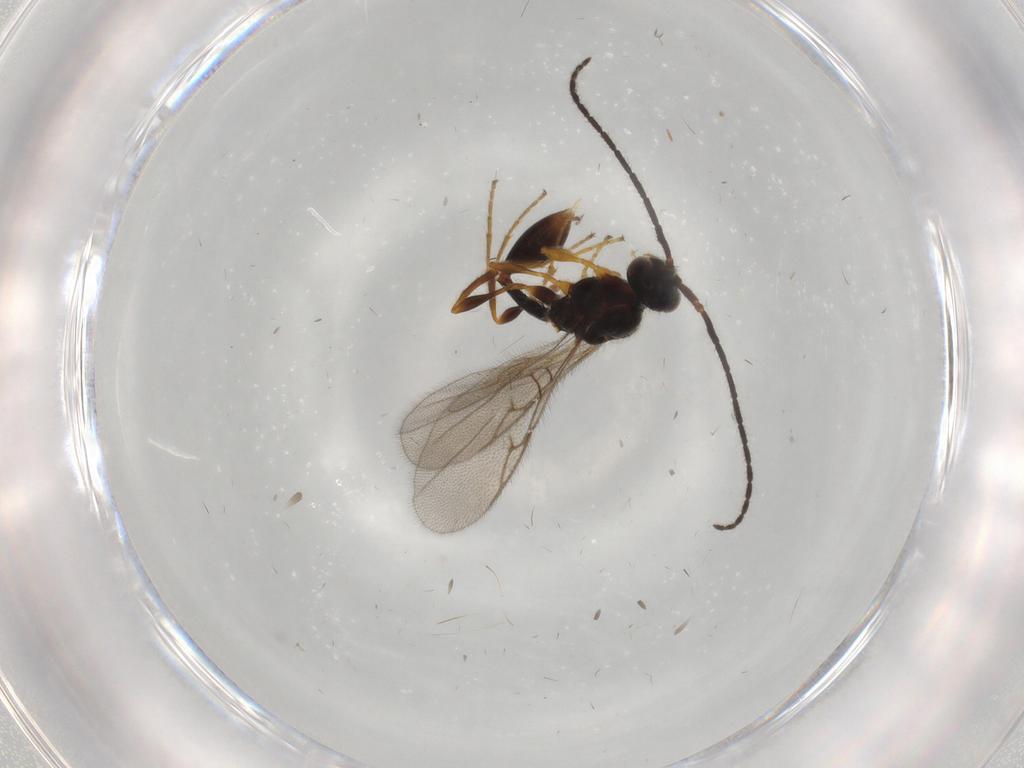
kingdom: Animalia
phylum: Arthropoda
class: Insecta
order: Hymenoptera
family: Diapriidae
